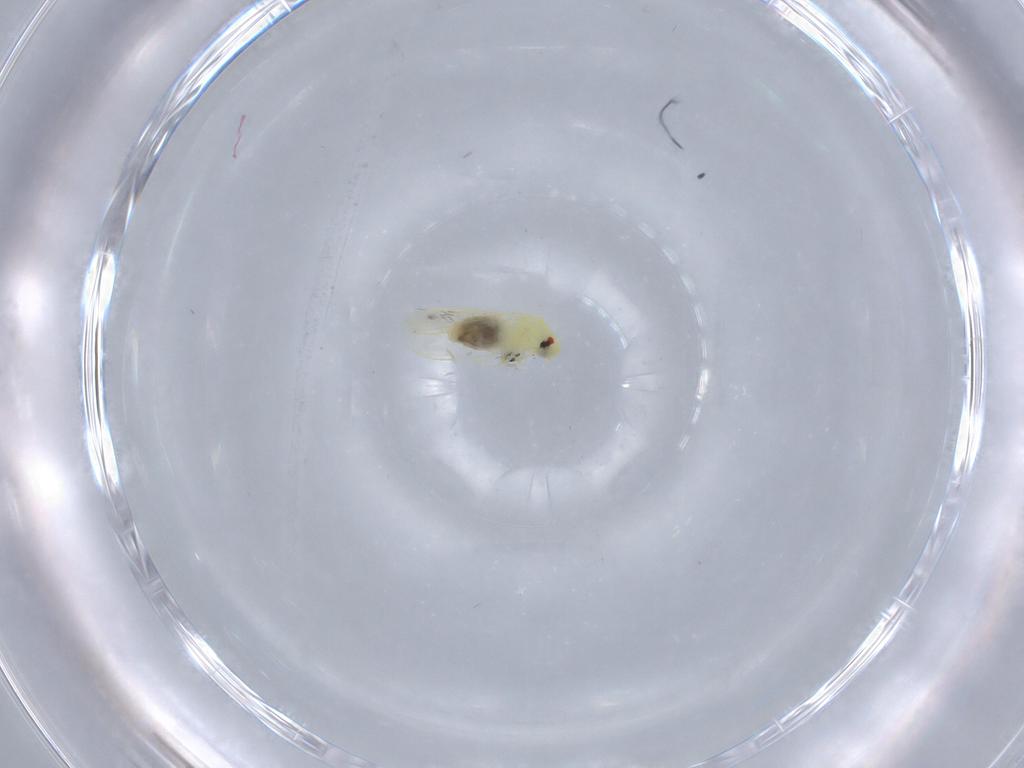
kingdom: Animalia
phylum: Arthropoda
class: Insecta
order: Hemiptera
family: Aleyrodidae
